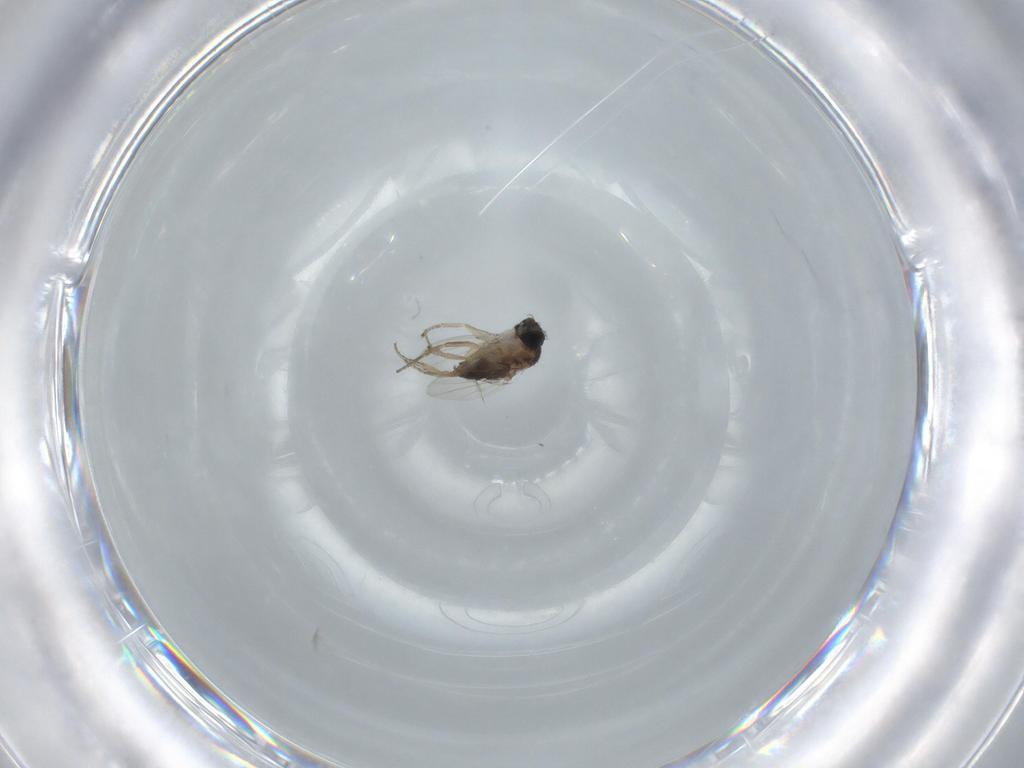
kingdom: Animalia
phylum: Arthropoda
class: Insecta
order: Diptera
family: Phoridae
